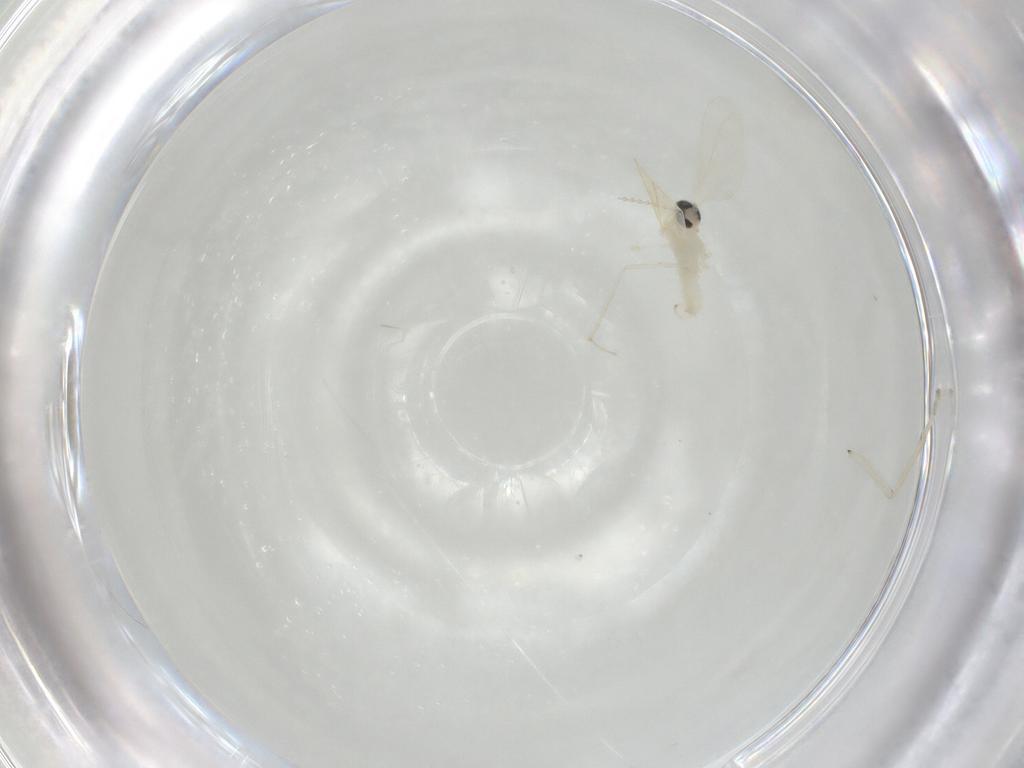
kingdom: Animalia
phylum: Arthropoda
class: Insecta
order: Diptera
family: Psychodidae
